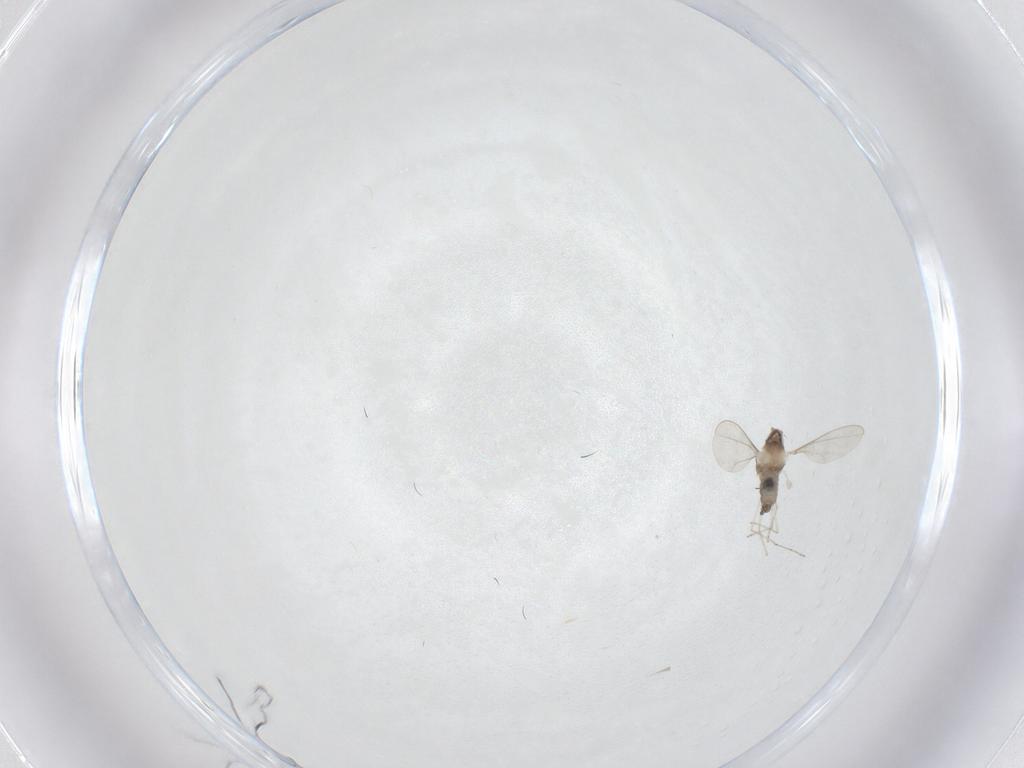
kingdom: Animalia
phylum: Arthropoda
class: Insecta
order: Diptera
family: Cecidomyiidae
